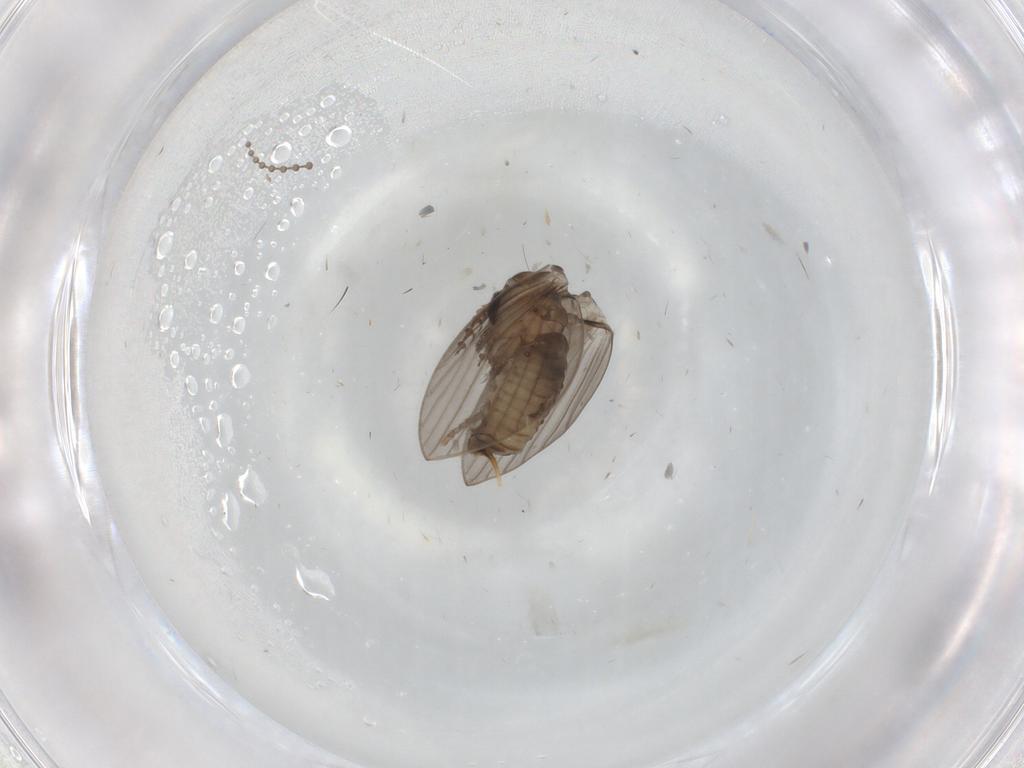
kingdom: Animalia
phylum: Arthropoda
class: Insecta
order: Diptera
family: Psychodidae
